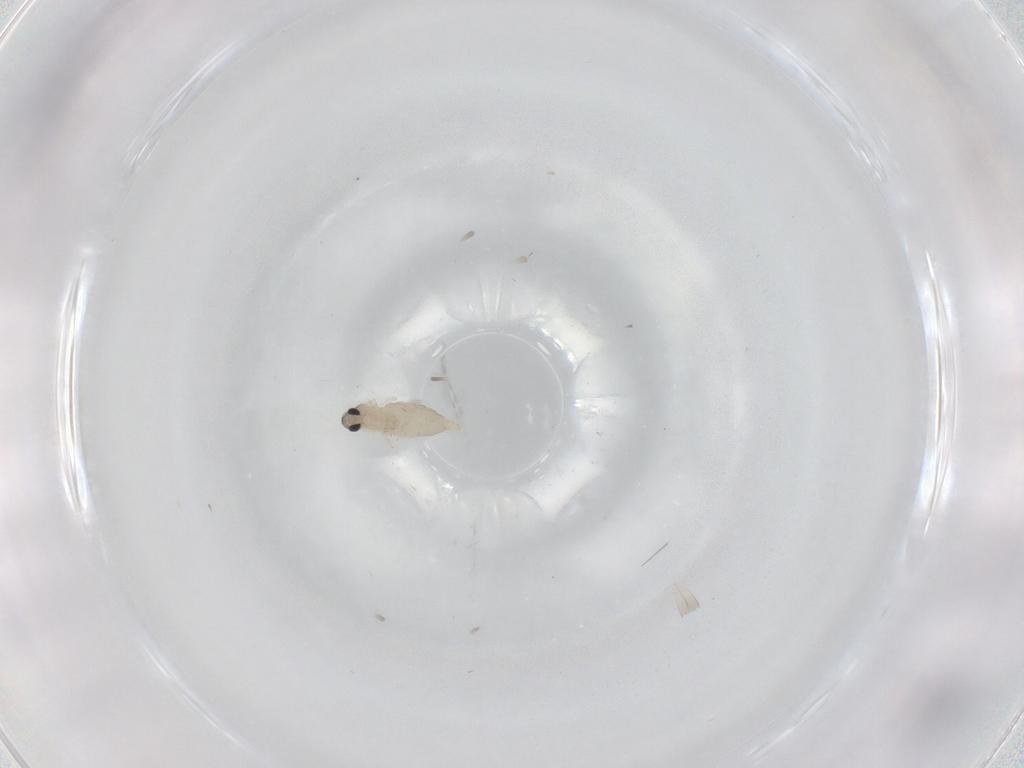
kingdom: Animalia
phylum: Arthropoda
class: Insecta
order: Diptera
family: Cecidomyiidae
